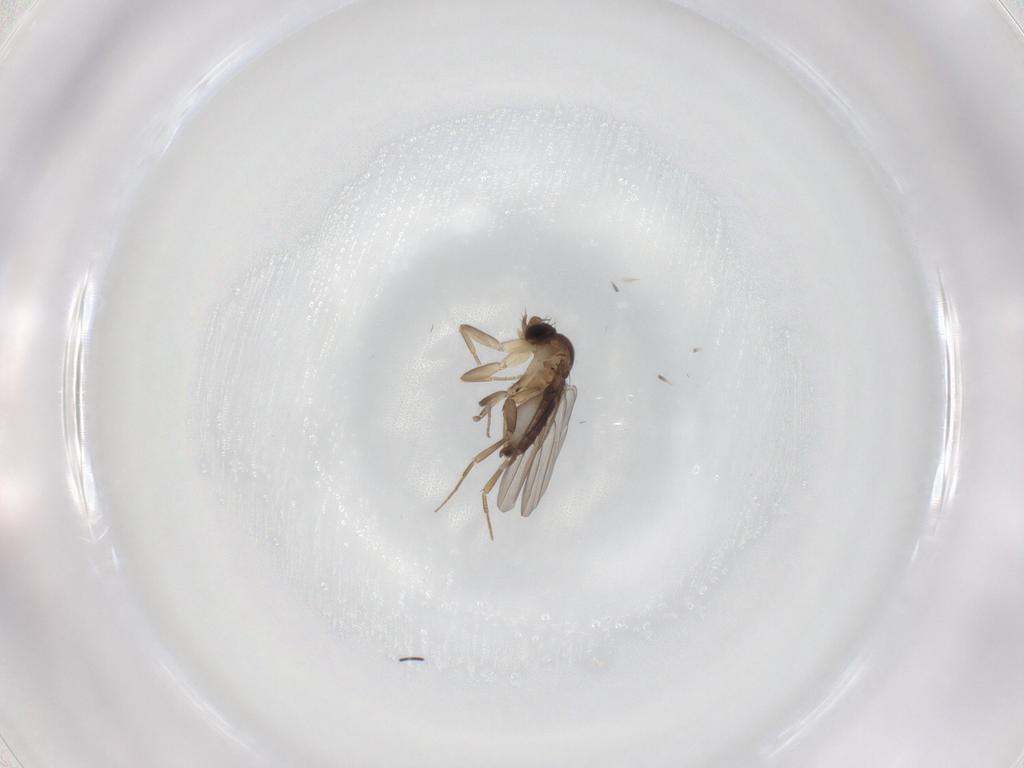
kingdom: Animalia
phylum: Arthropoda
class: Insecta
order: Diptera
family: Phoridae
